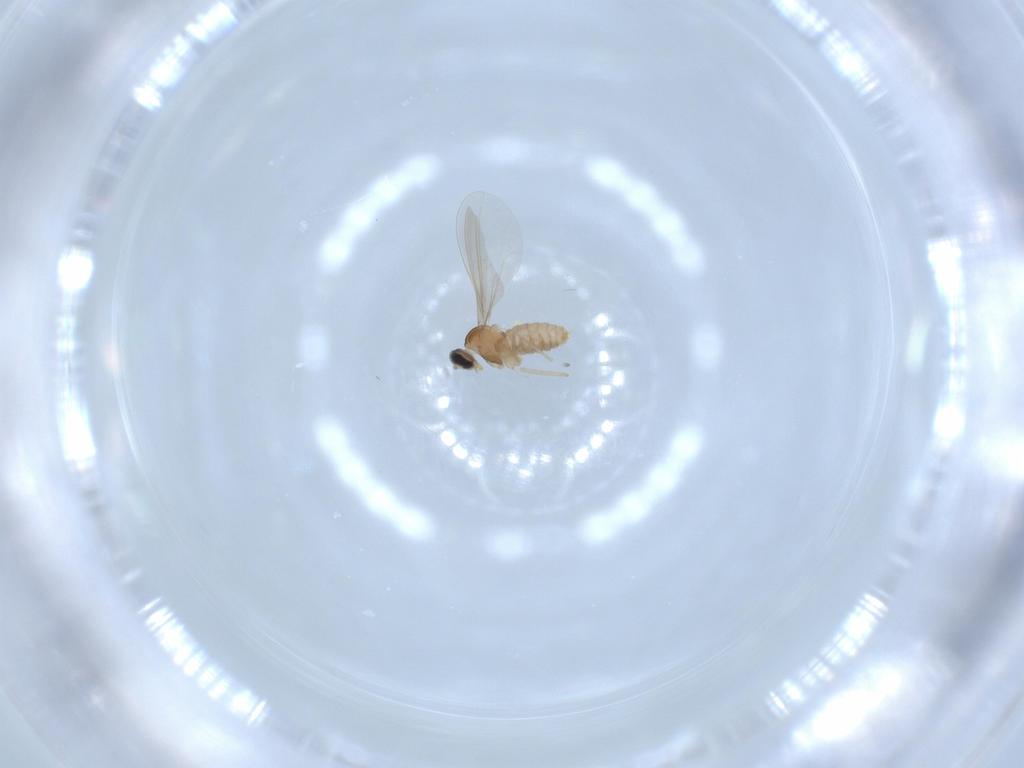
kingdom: Animalia
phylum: Arthropoda
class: Insecta
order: Diptera
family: Cecidomyiidae
